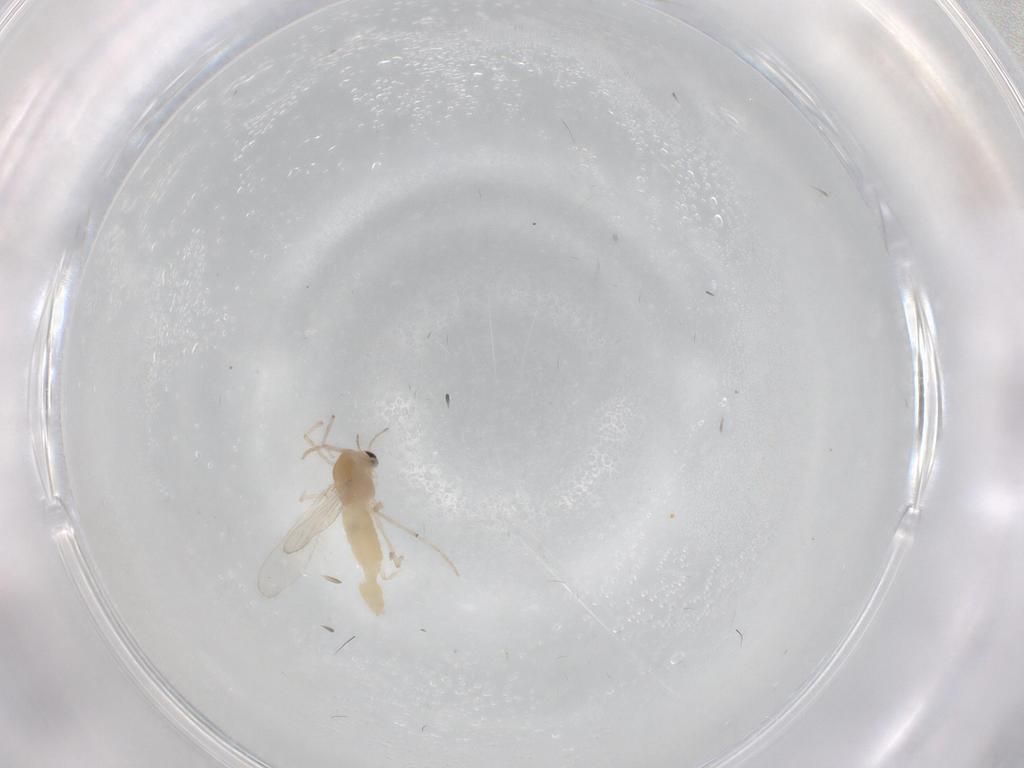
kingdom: Animalia
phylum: Arthropoda
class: Insecta
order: Diptera
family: Chironomidae
